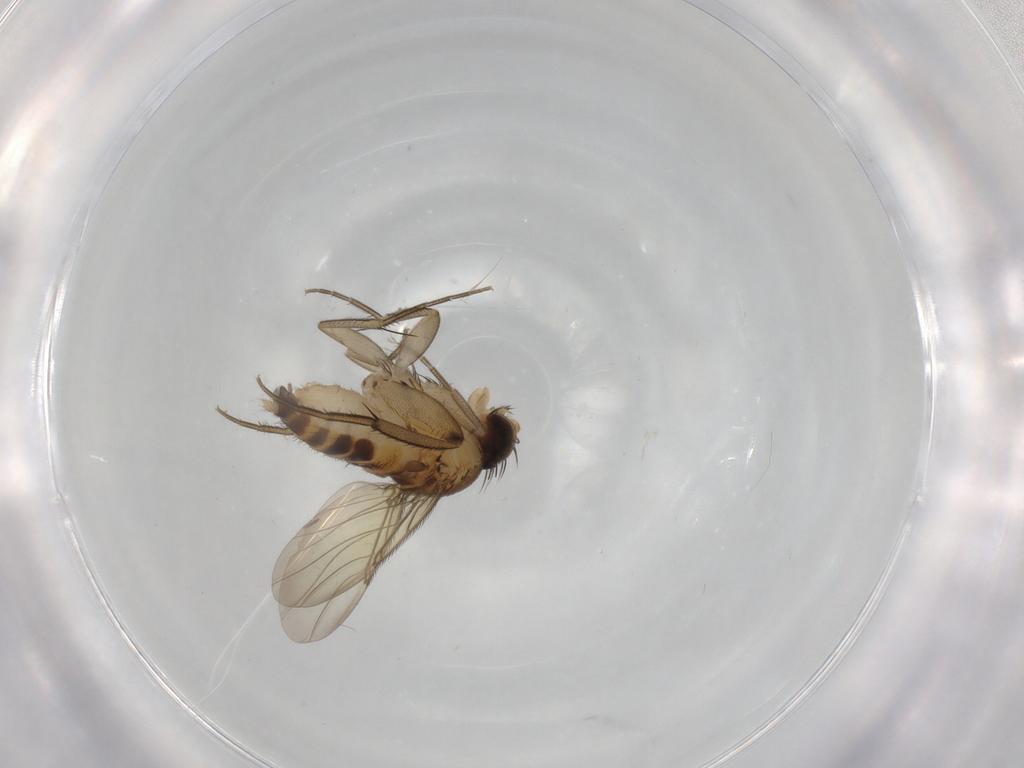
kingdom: Animalia
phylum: Arthropoda
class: Insecta
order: Diptera
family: Phoridae
